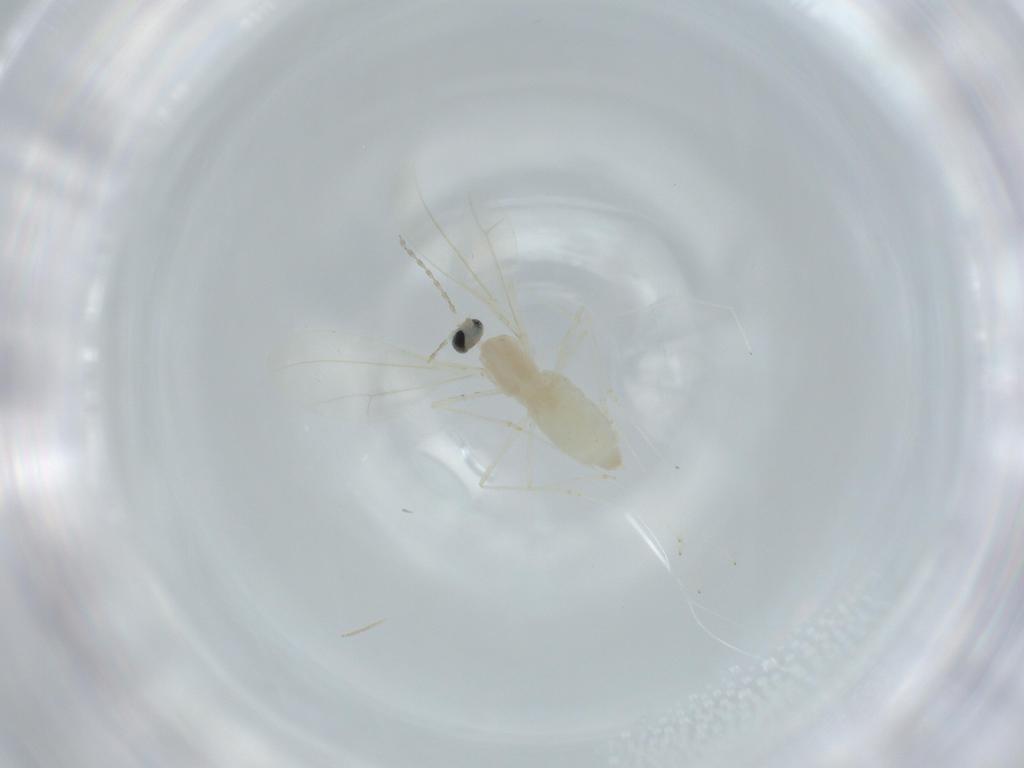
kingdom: Animalia
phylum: Arthropoda
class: Insecta
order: Diptera
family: Cecidomyiidae
